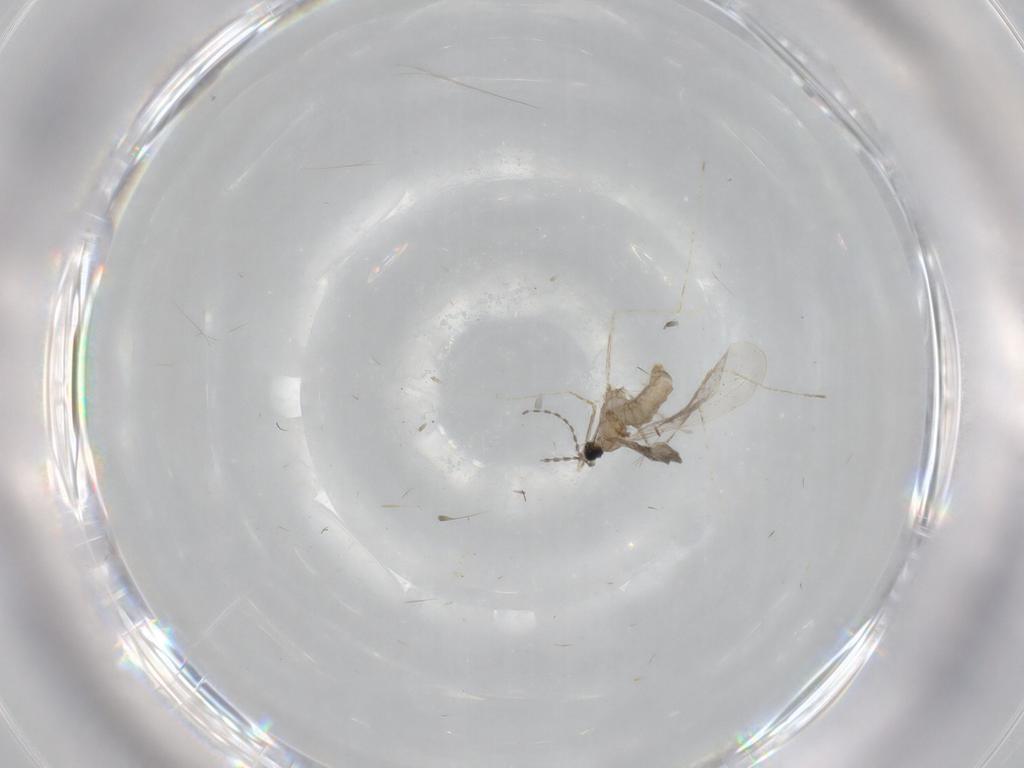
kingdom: Animalia
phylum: Arthropoda
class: Insecta
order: Diptera
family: Cecidomyiidae
